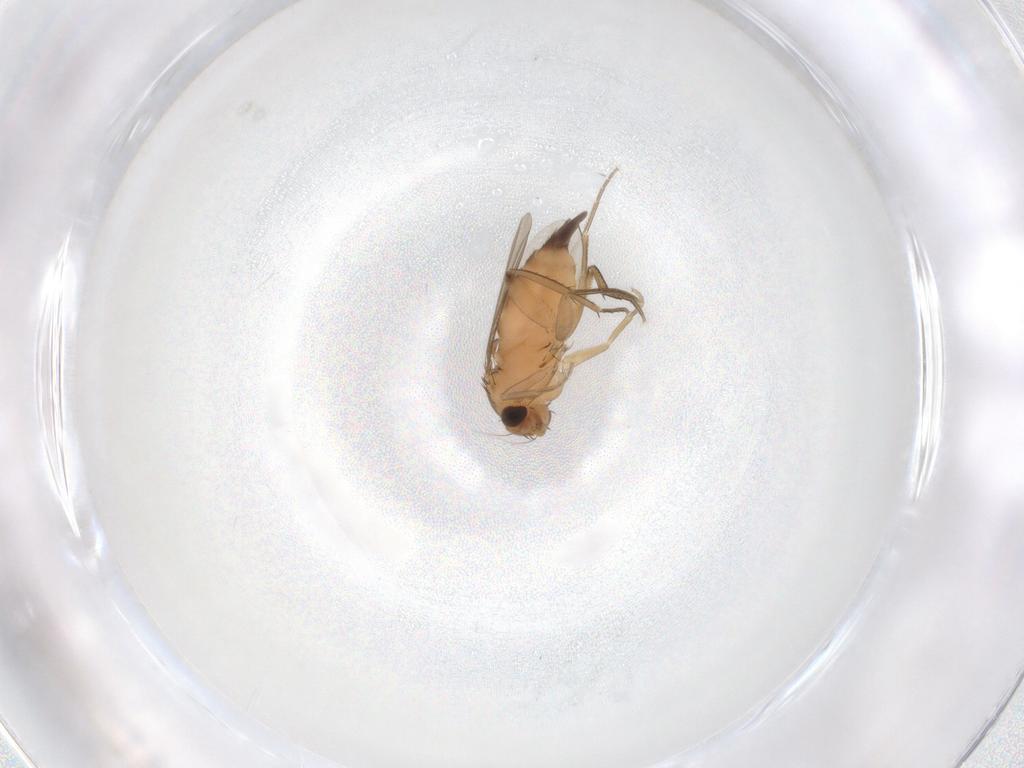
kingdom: Animalia
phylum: Arthropoda
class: Insecta
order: Diptera
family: Phoridae
